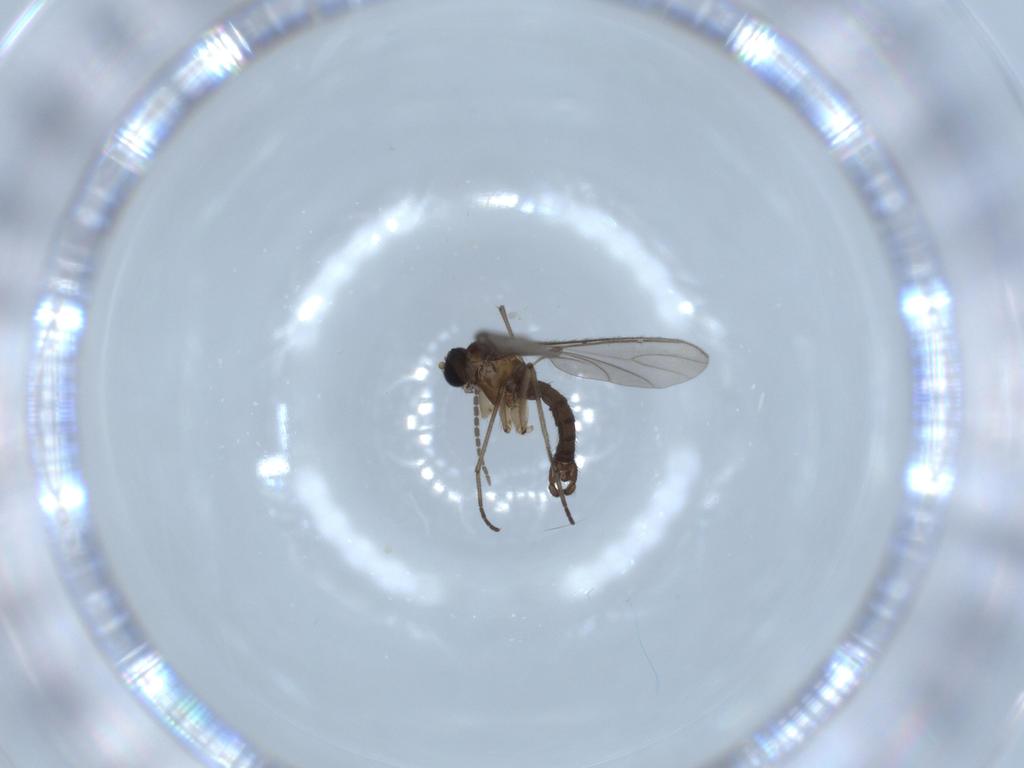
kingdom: Animalia
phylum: Arthropoda
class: Insecta
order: Diptera
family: Sciaridae
